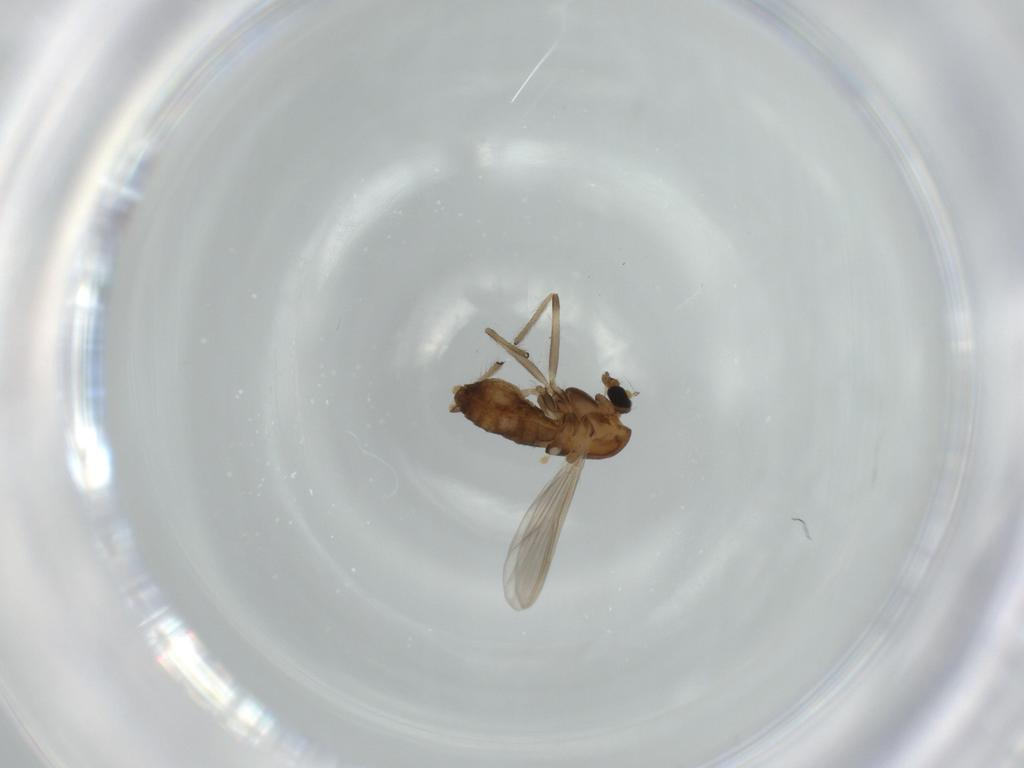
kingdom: Animalia
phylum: Arthropoda
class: Insecta
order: Diptera
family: Chironomidae
